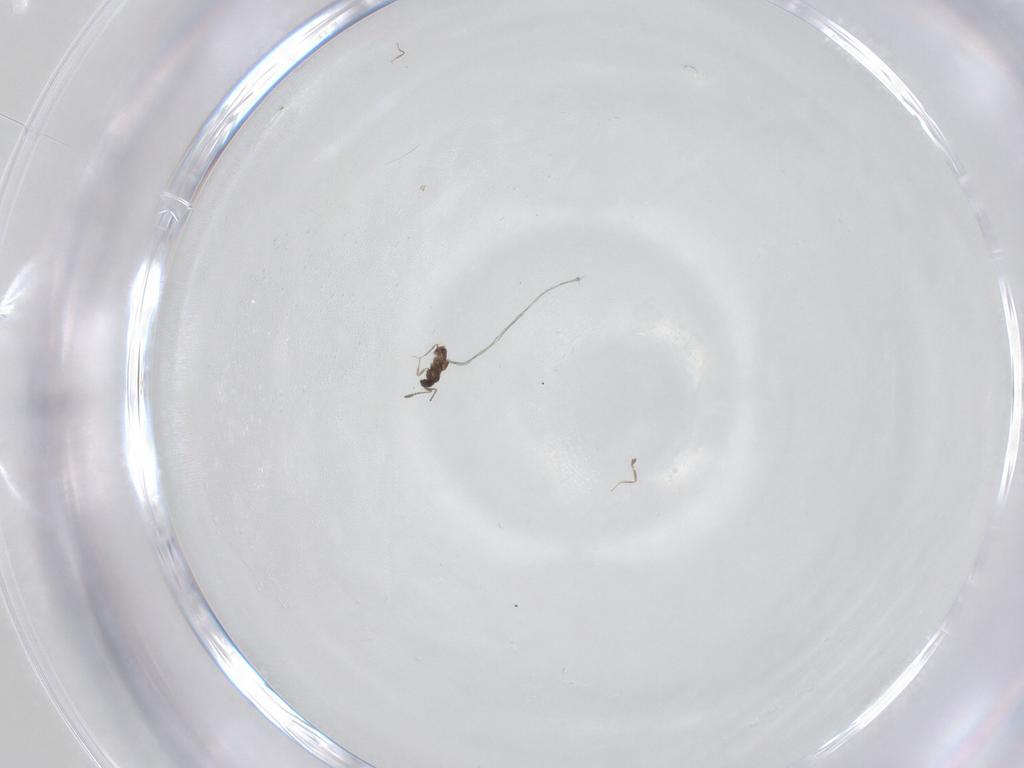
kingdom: Animalia
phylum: Arthropoda
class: Insecta
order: Hymenoptera
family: Mymaridae
